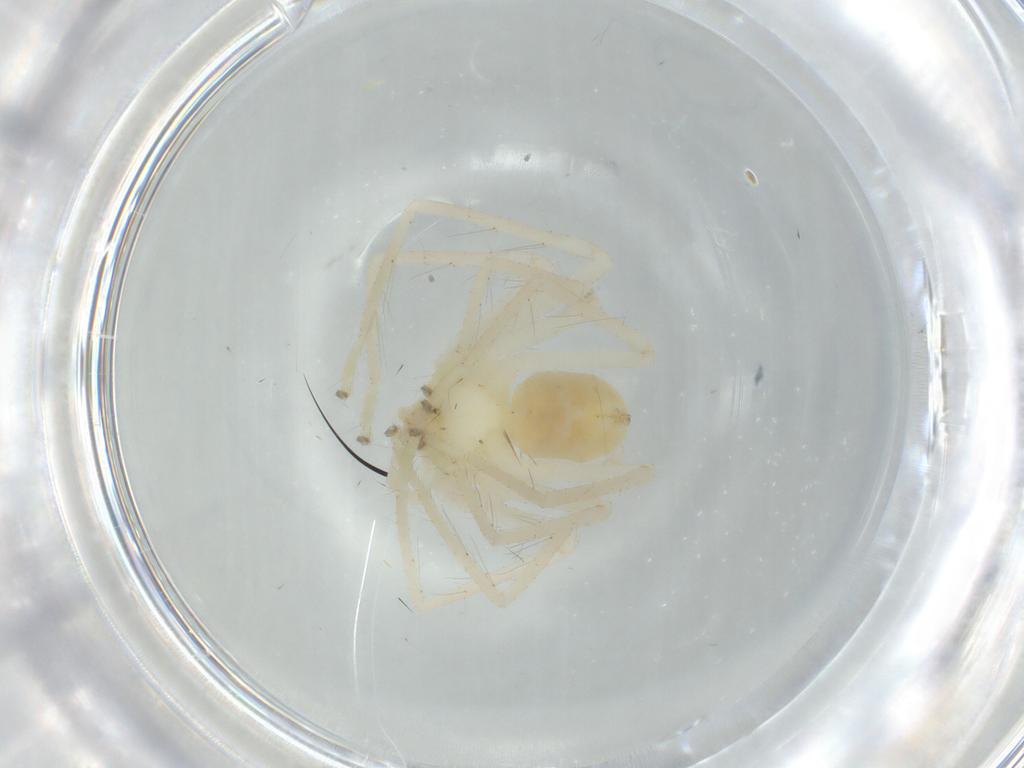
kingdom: Animalia
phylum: Arthropoda
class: Arachnida
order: Araneae
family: Sparassidae
